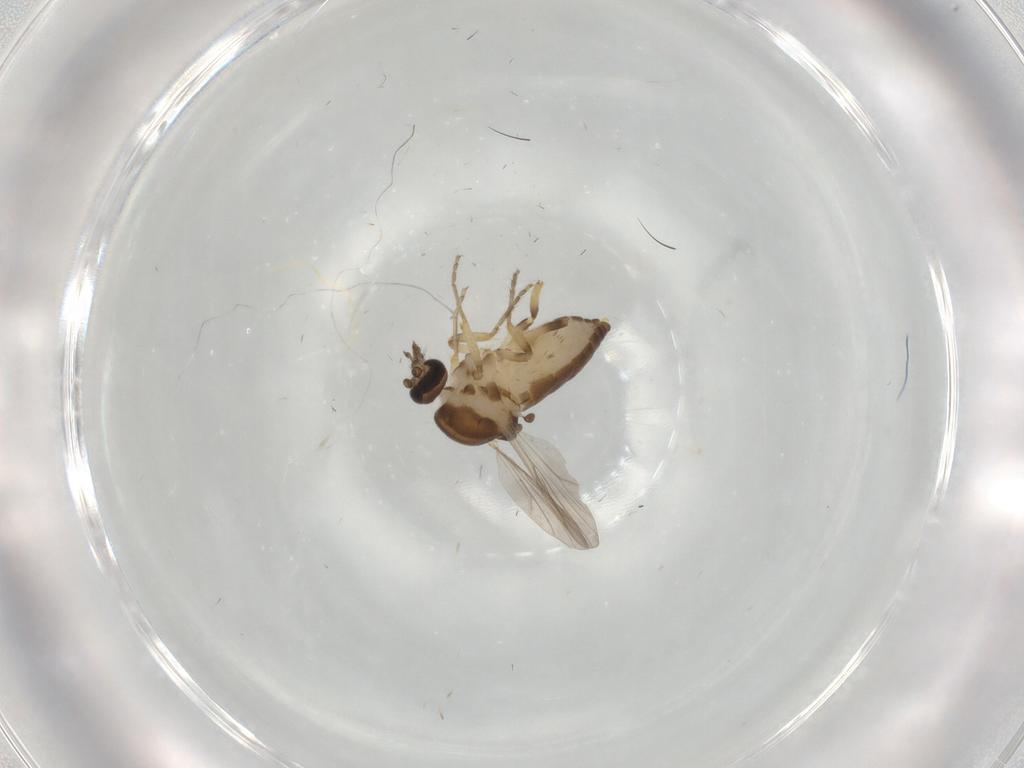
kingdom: Animalia
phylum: Arthropoda
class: Insecta
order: Diptera
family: Ceratopogonidae
